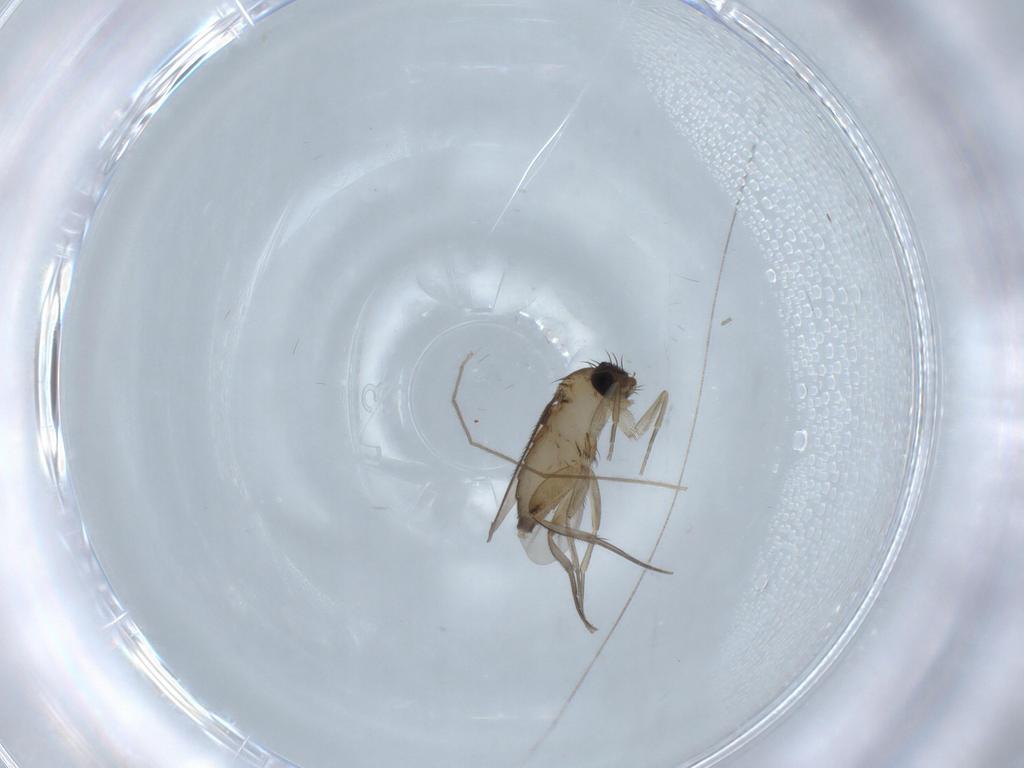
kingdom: Animalia
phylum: Arthropoda
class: Insecta
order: Diptera
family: Phoridae
